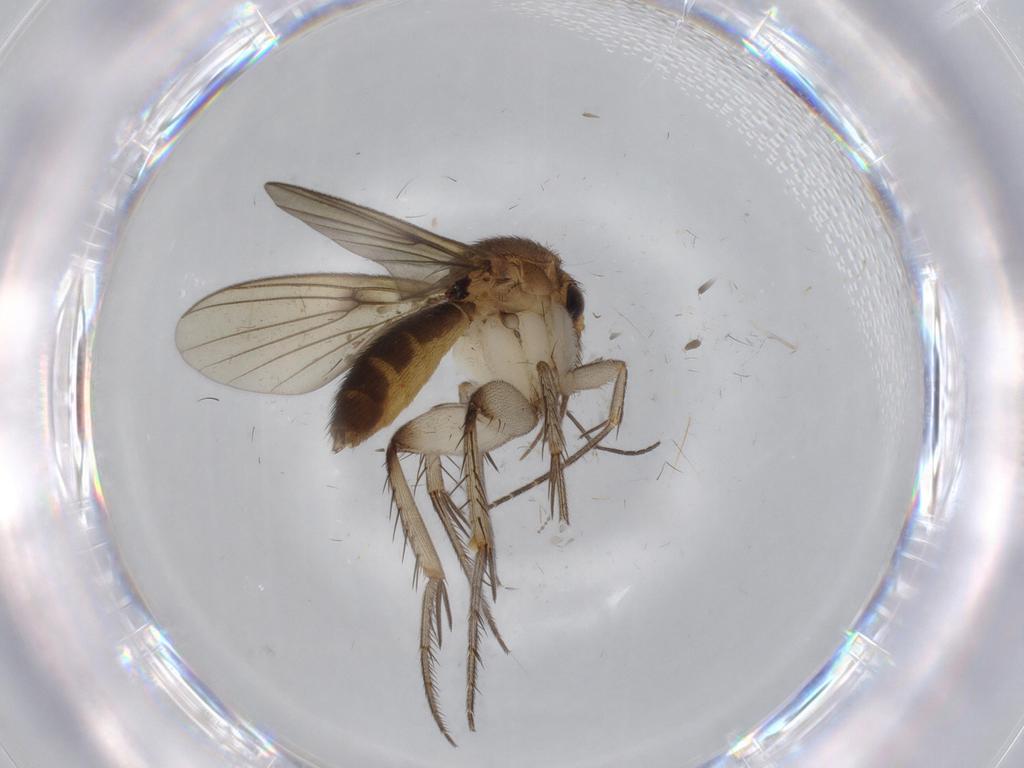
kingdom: Animalia
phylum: Arthropoda
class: Insecta
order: Diptera
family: Sciaridae
